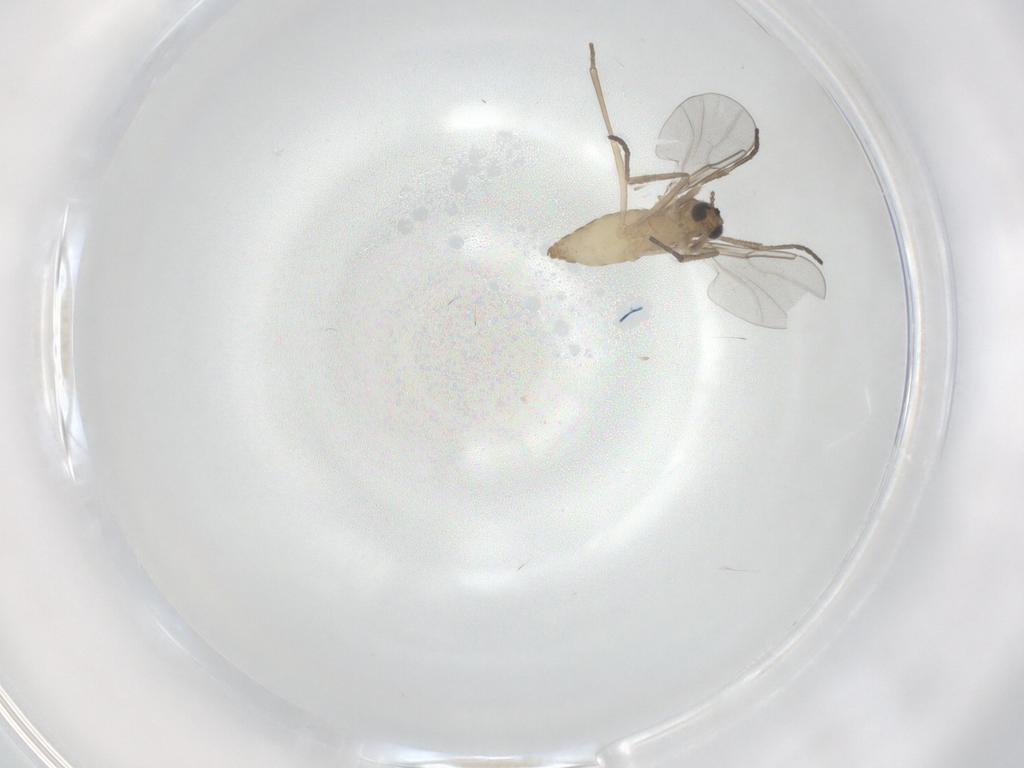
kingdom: Animalia
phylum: Arthropoda
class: Insecta
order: Diptera
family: Cecidomyiidae
